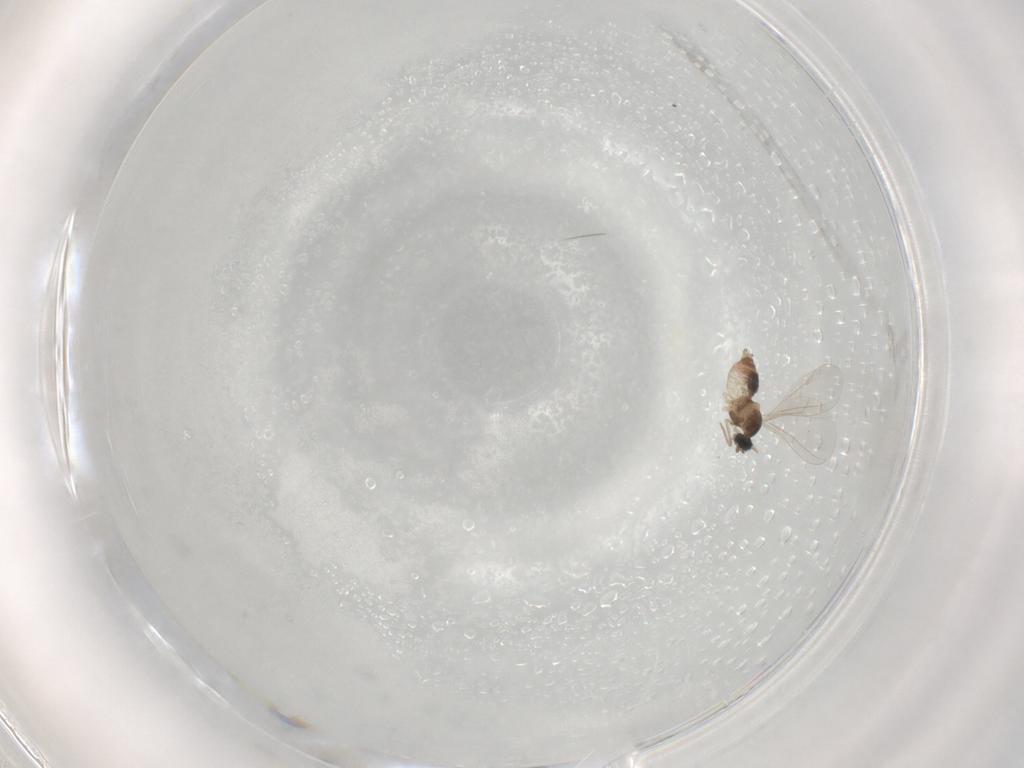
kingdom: Animalia
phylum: Arthropoda
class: Insecta
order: Diptera
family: Cecidomyiidae
